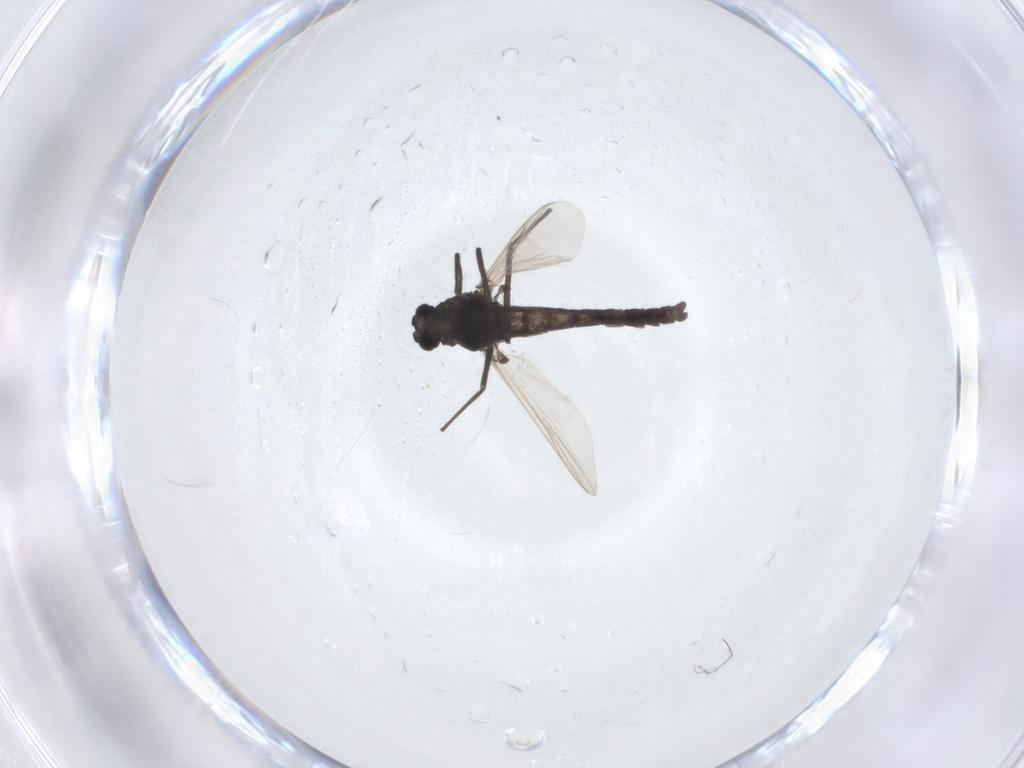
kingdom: Animalia
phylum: Arthropoda
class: Insecta
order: Diptera
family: Chironomidae
